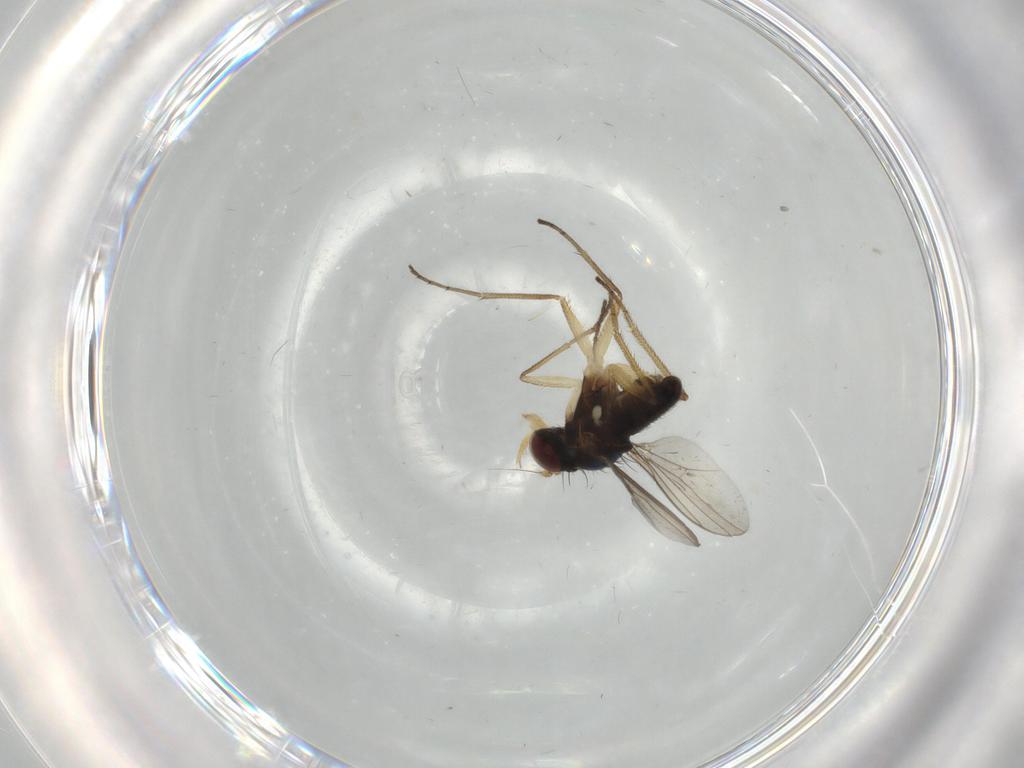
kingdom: Animalia
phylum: Arthropoda
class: Insecta
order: Diptera
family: Dolichopodidae
